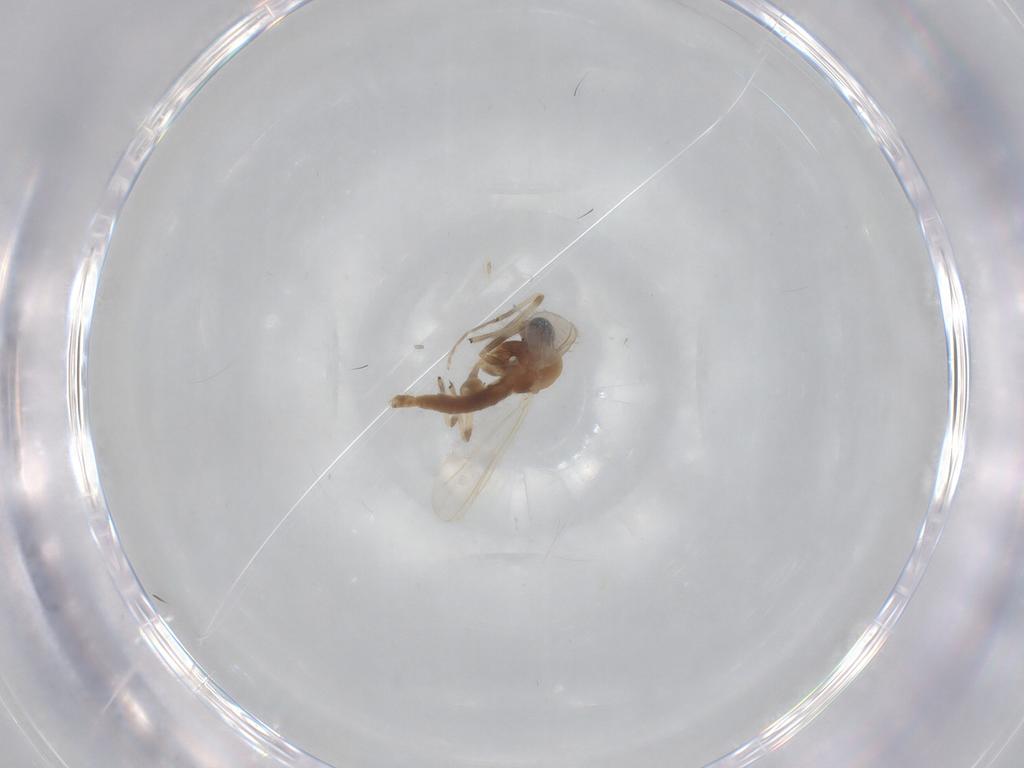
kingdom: Animalia
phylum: Arthropoda
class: Insecta
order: Diptera
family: Chironomidae
